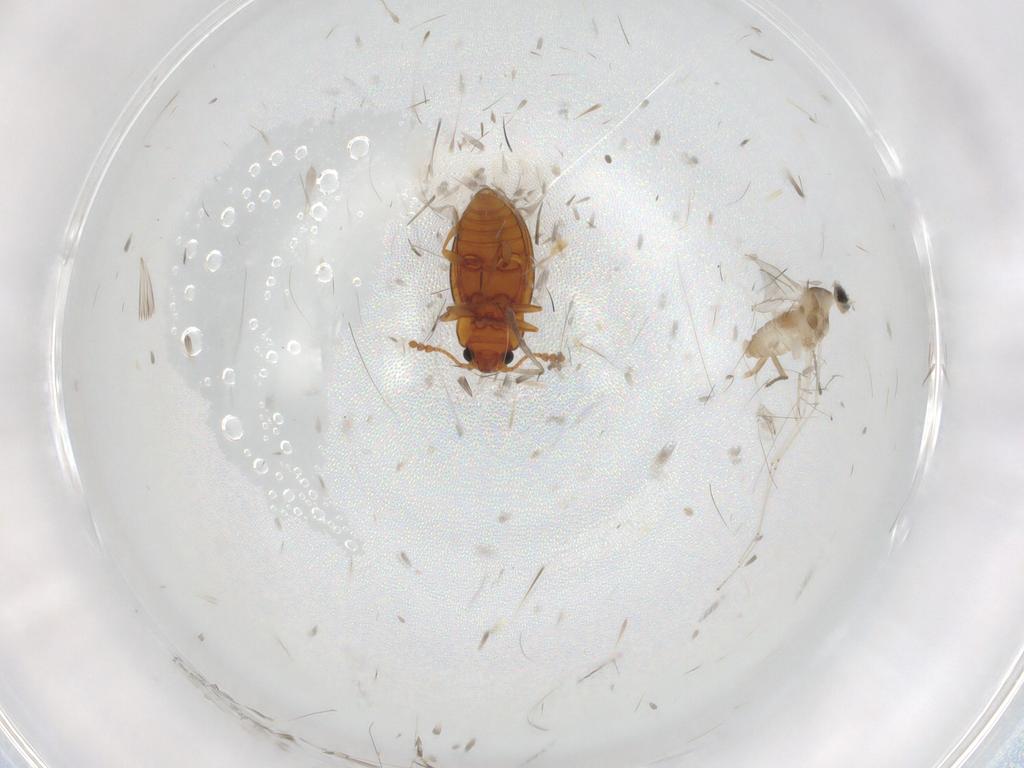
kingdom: Animalia
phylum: Arthropoda
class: Insecta
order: Coleoptera
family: Erotylidae
